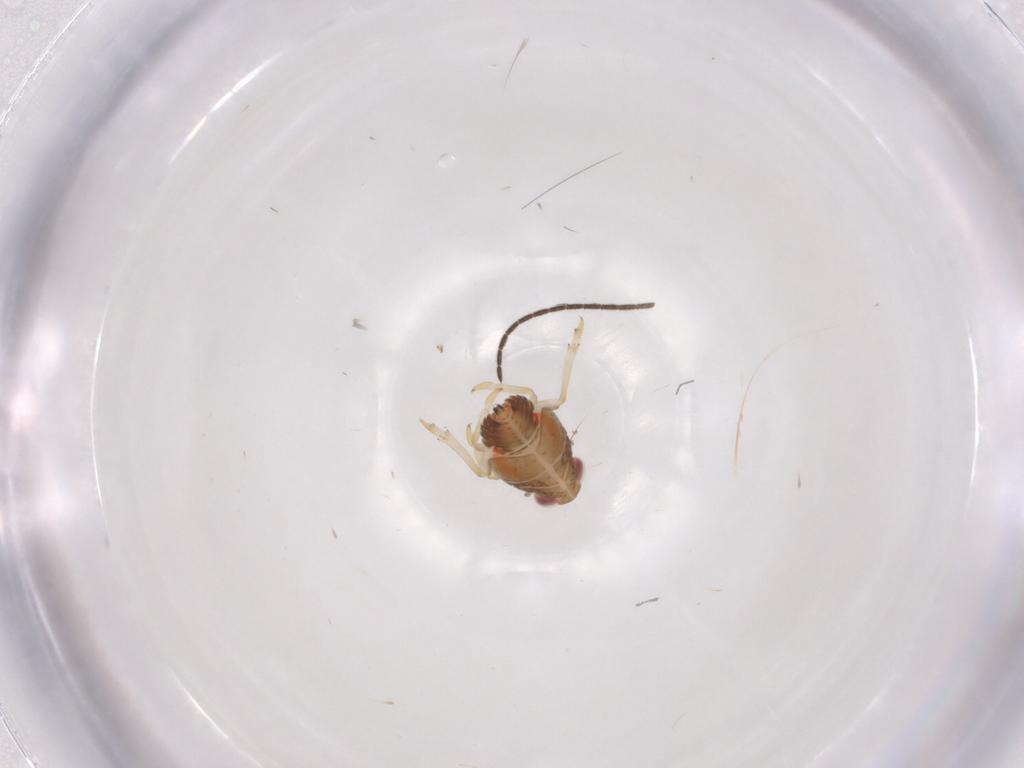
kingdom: Animalia
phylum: Arthropoda
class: Insecta
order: Hemiptera
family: Issidae
